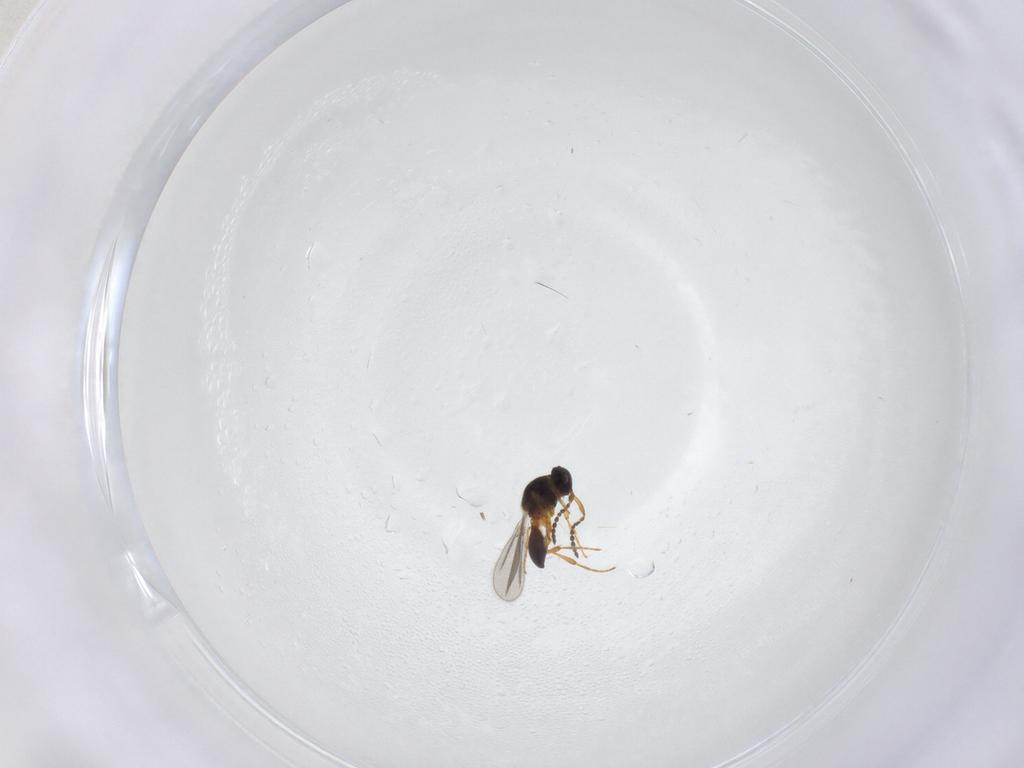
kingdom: Animalia
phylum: Arthropoda
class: Insecta
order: Hymenoptera
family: Platygastridae
